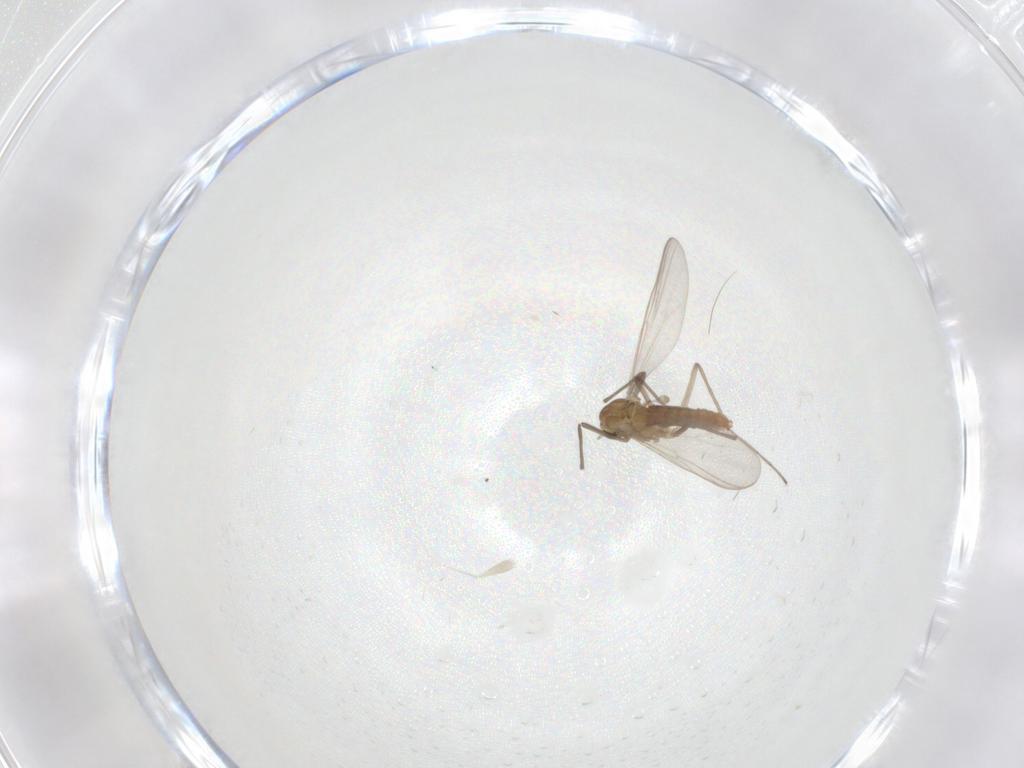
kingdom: Animalia
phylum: Arthropoda
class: Insecta
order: Diptera
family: Chironomidae
